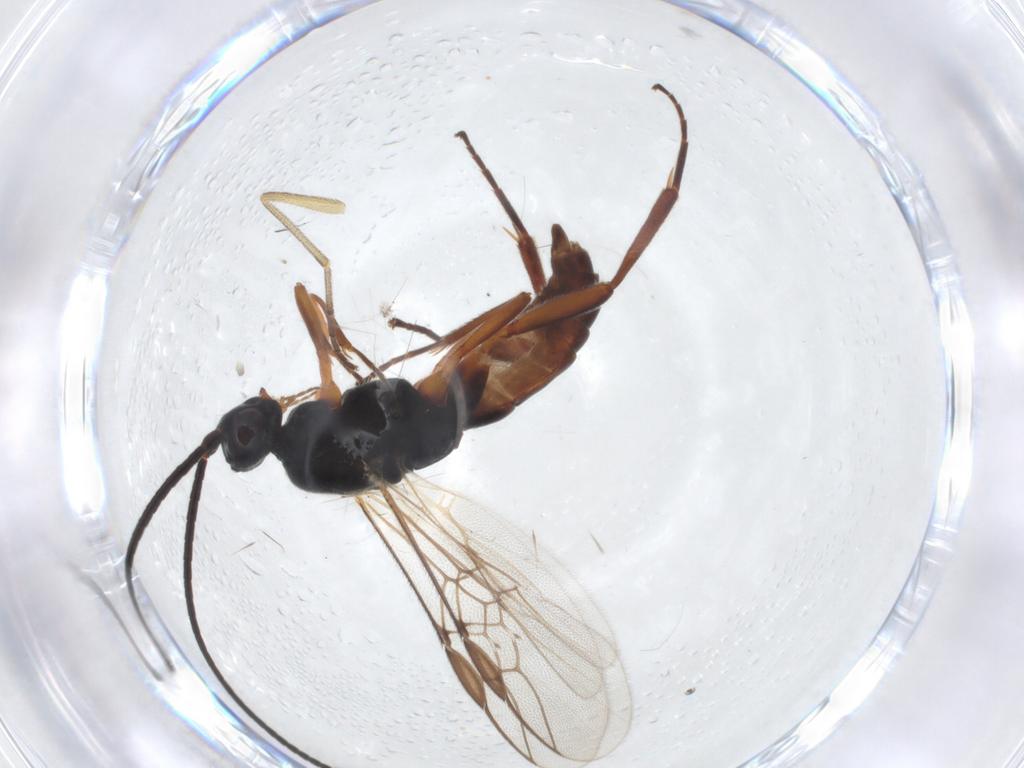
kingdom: Animalia
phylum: Arthropoda
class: Insecta
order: Hymenoptera
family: Braconidae
